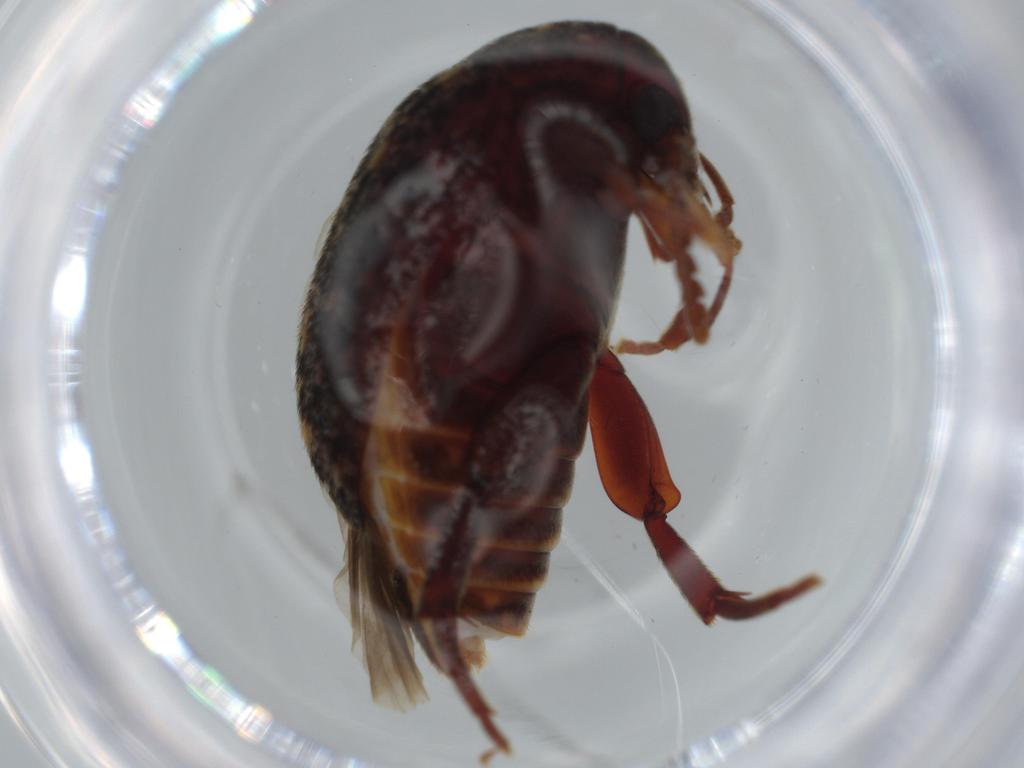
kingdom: Animalia
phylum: Arthropoda
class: Insecta
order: Coleoptera
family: Chrysomelidae
